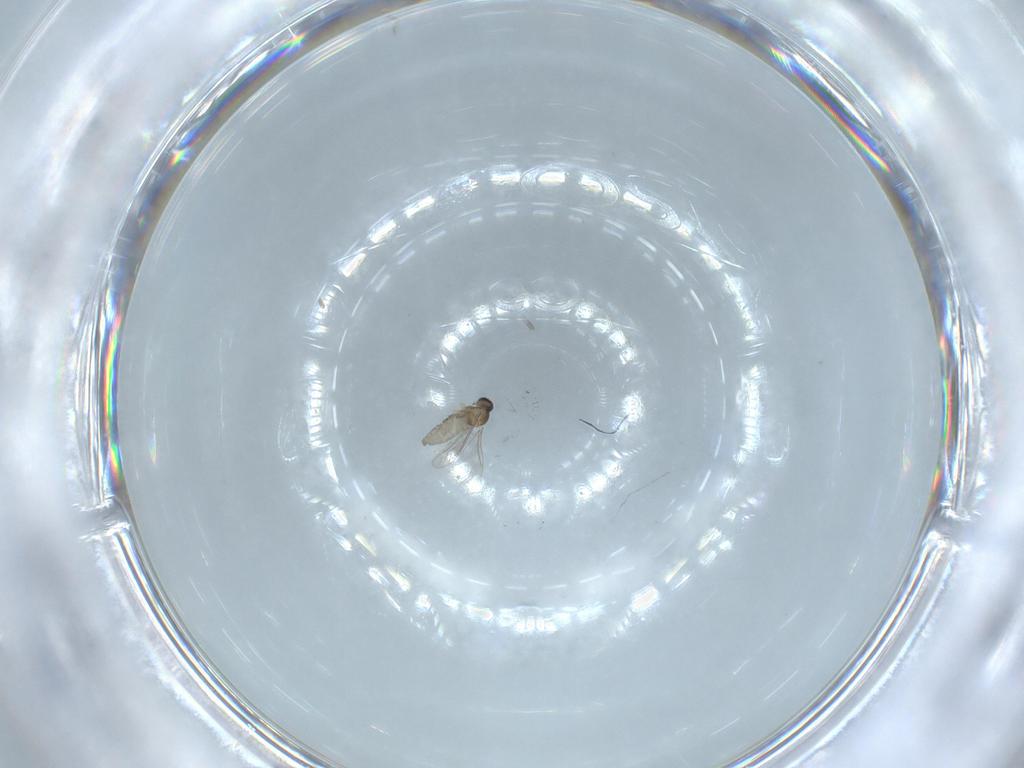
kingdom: Animalia
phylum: Arthropoda
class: Insecta
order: Diptera
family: Cecidomyiidae
